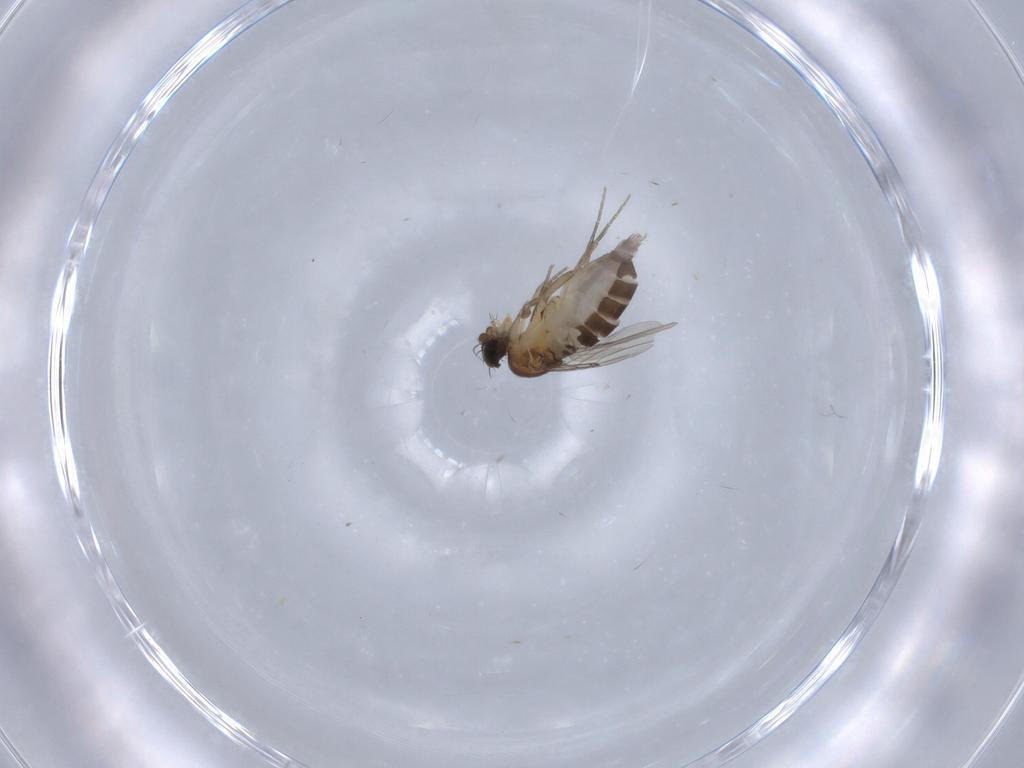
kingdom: Animalia
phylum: Arthropoda
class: Insecta
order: Diptera
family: Phoridae
